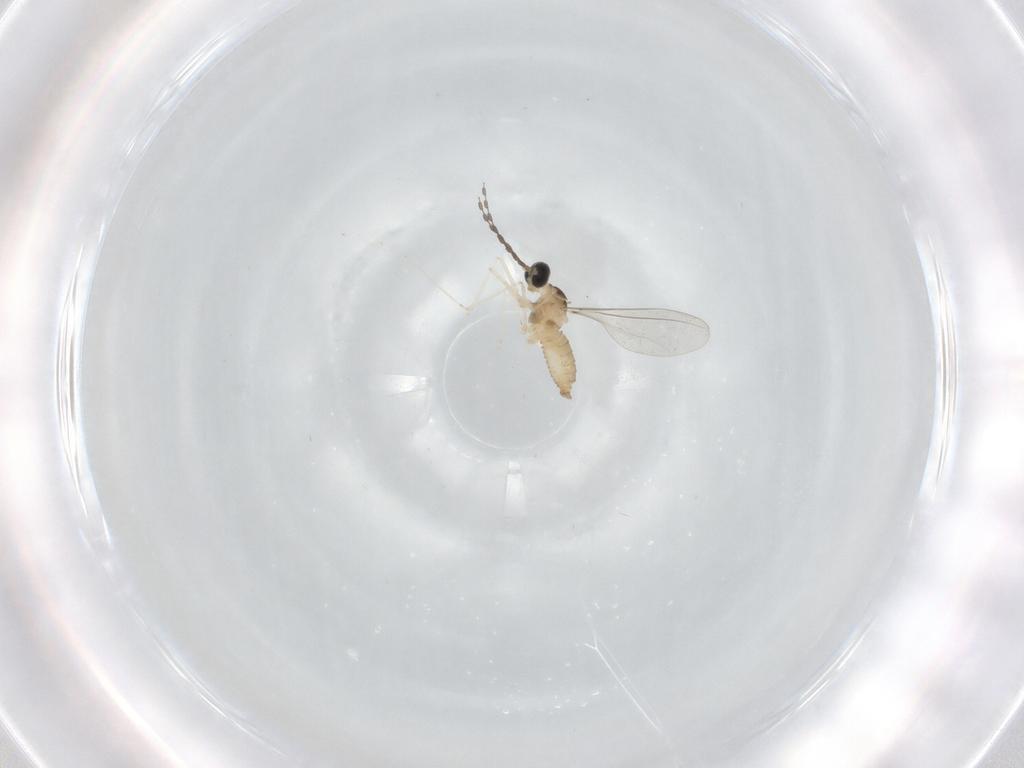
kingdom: Animalia
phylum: Arthropoda
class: Insecta
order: Diptera
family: Cecidomyiidae
